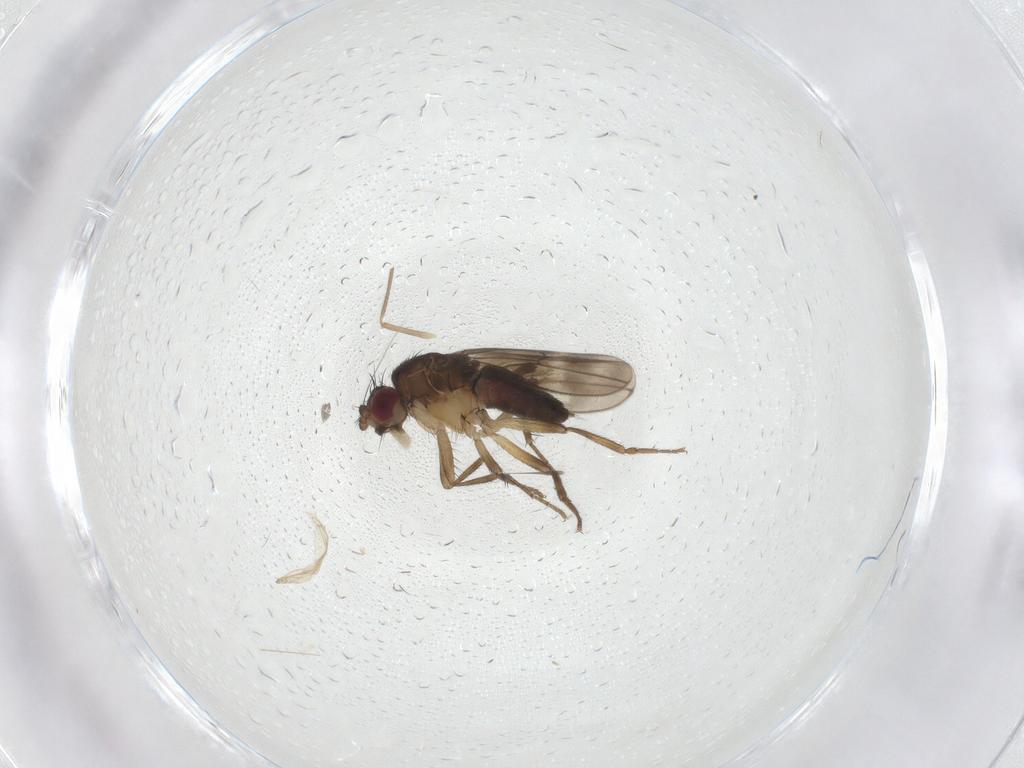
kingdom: Animalia
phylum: Arthropoda
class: Insecta
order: Diptera
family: Sphaeroceridae
